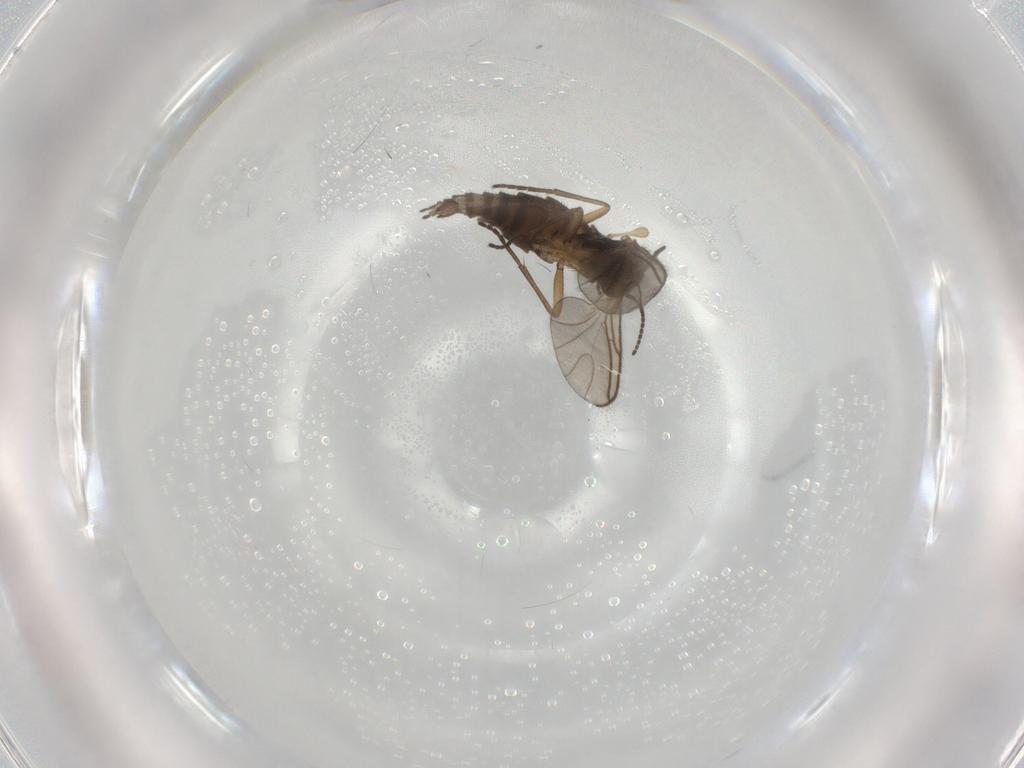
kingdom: Animalia
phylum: Arthropoda
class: Insecta
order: Diptera
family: Sciaridae
